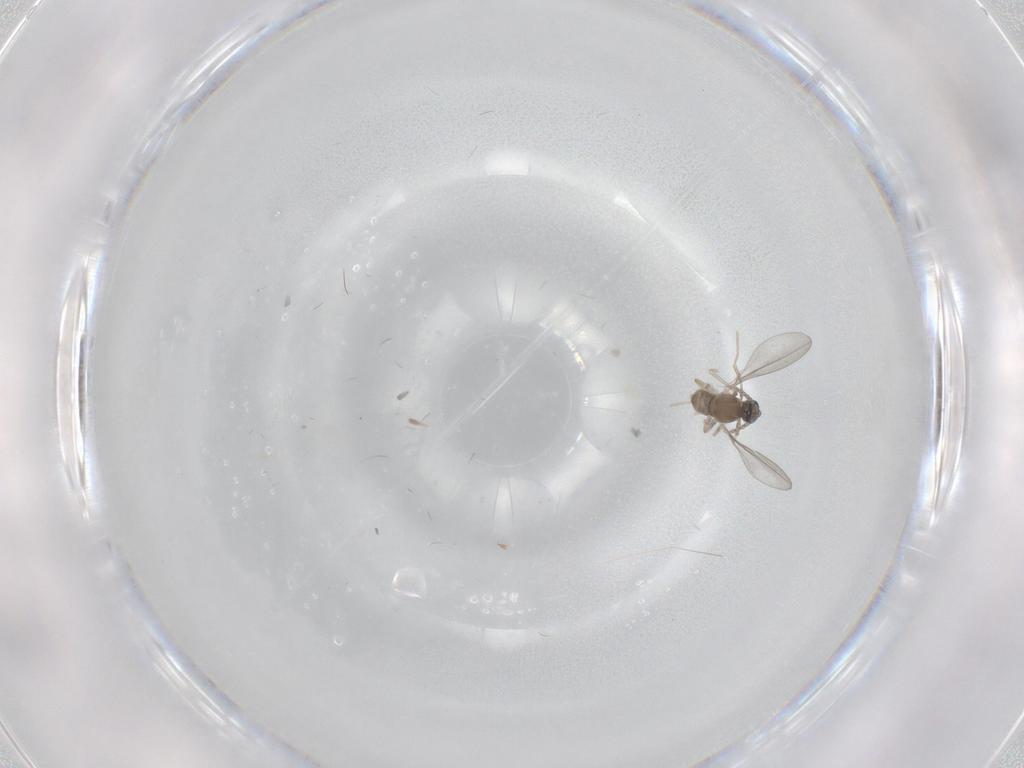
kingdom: Animalia
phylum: Arthropoda
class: Insecta
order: Diptera
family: Cecidomyiidae
